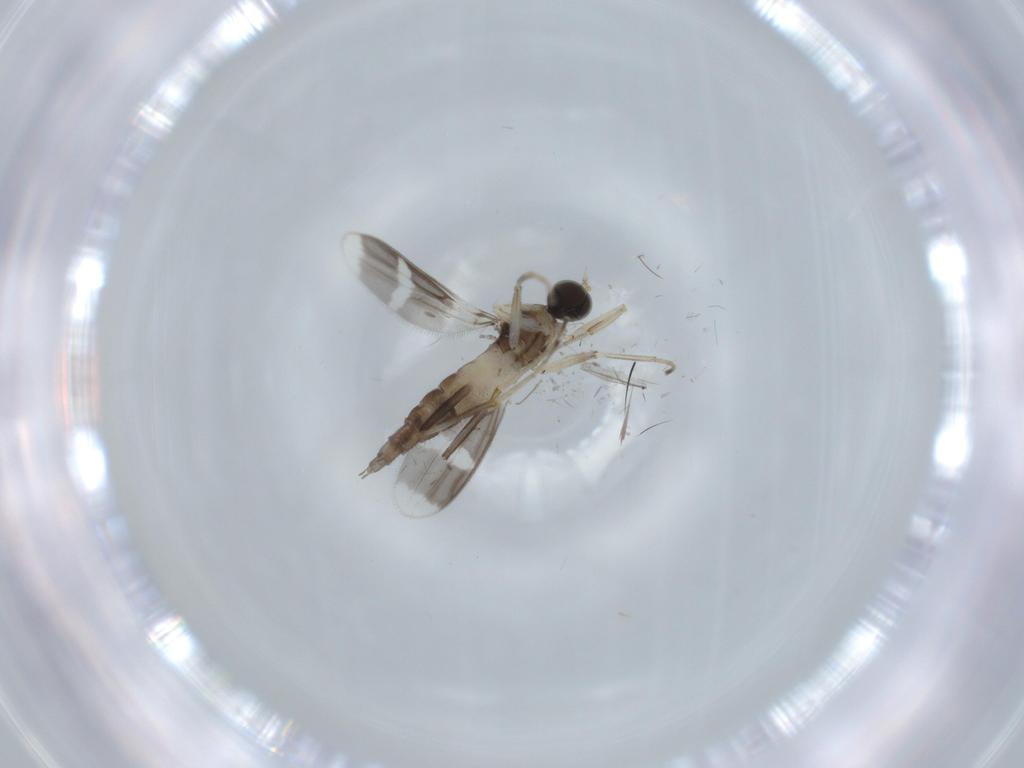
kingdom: Animalia
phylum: Arthropoda
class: Insecta
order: Diptera
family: Hybotidae
